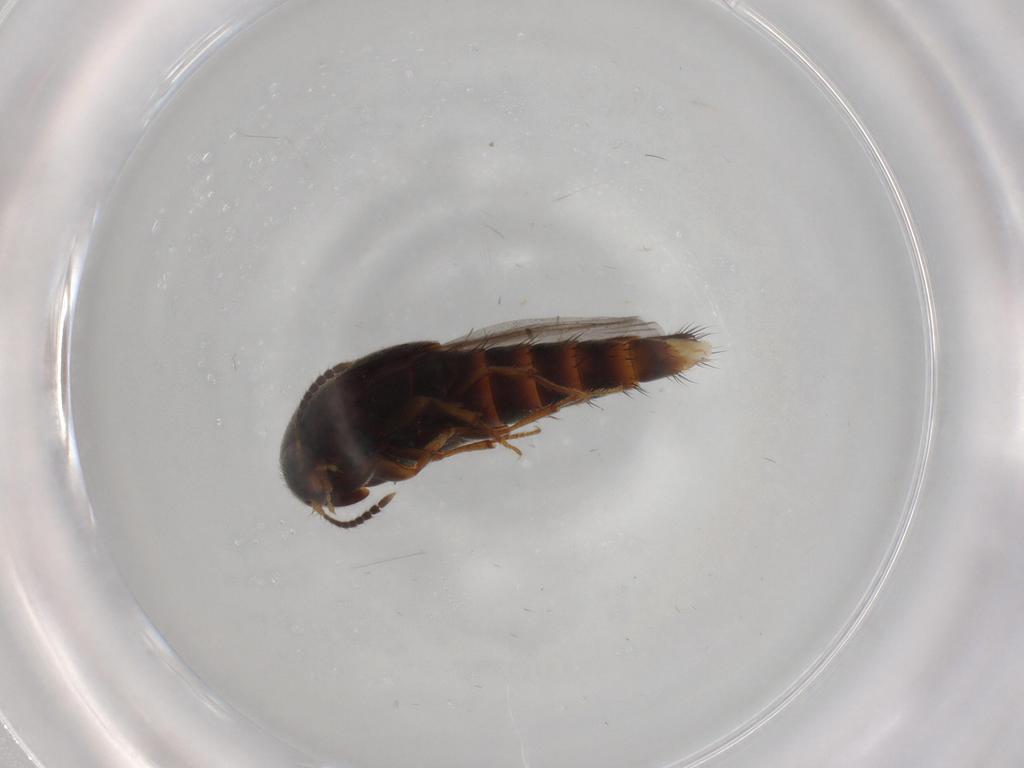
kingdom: Animalia
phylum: Arthropoda
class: Insecta
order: Coleoptera
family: Staphylinidae
